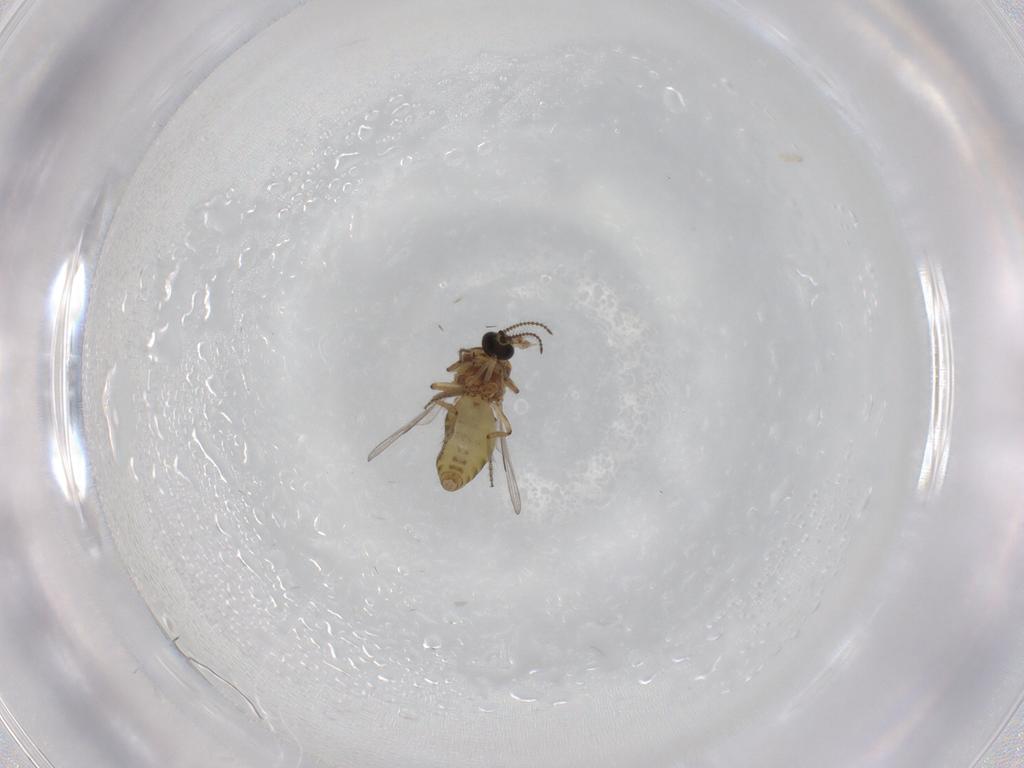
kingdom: Animalia
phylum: Arthropoda
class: Insecta
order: Diptera
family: Ceratopogonidae
